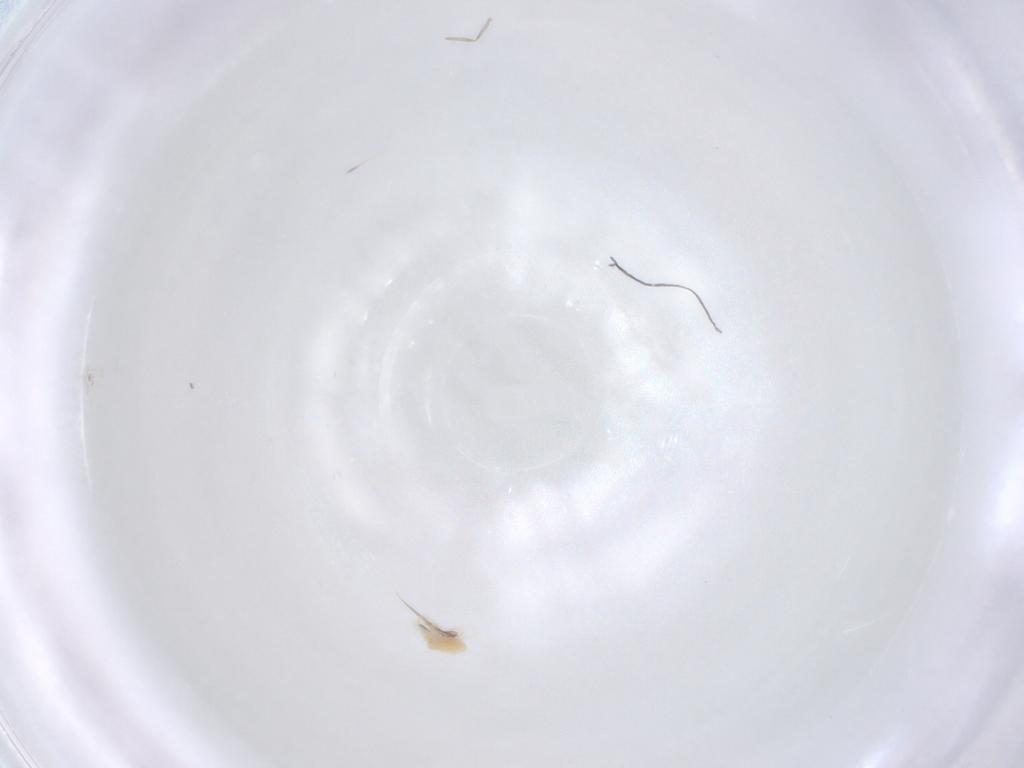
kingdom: Animalia
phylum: Arthropoda
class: Arachnida
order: Trombidiformes
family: Tetranychidae
